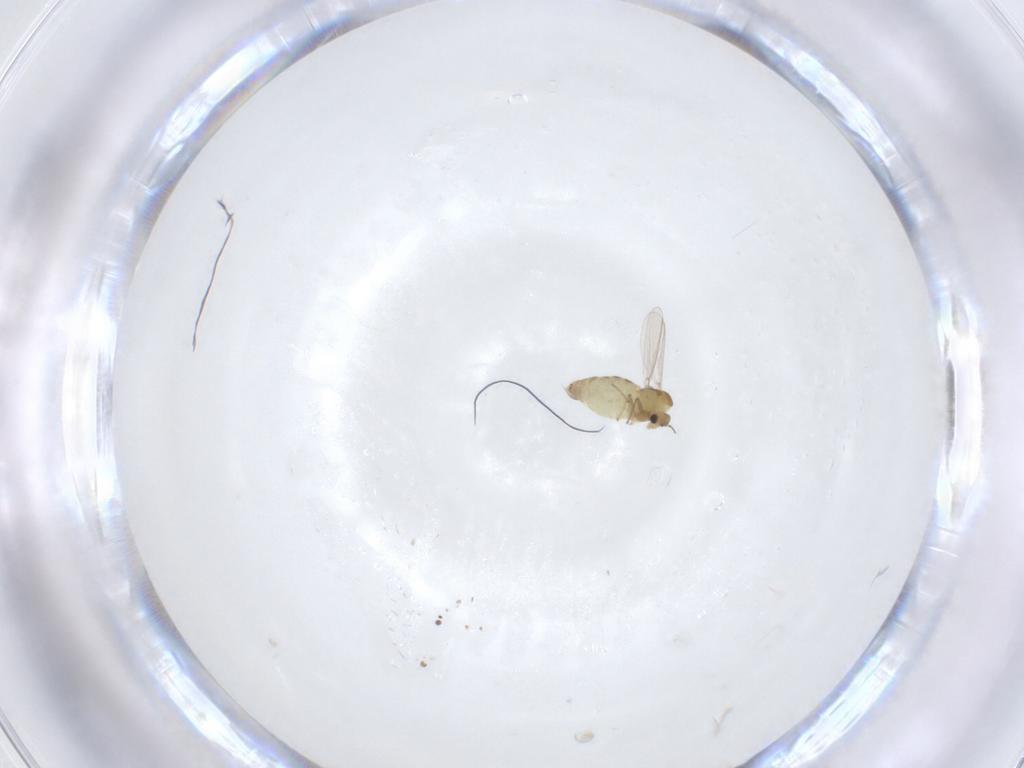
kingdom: Animalia
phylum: Arthropoda
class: Insecta
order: Diptera
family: Chironomidae
